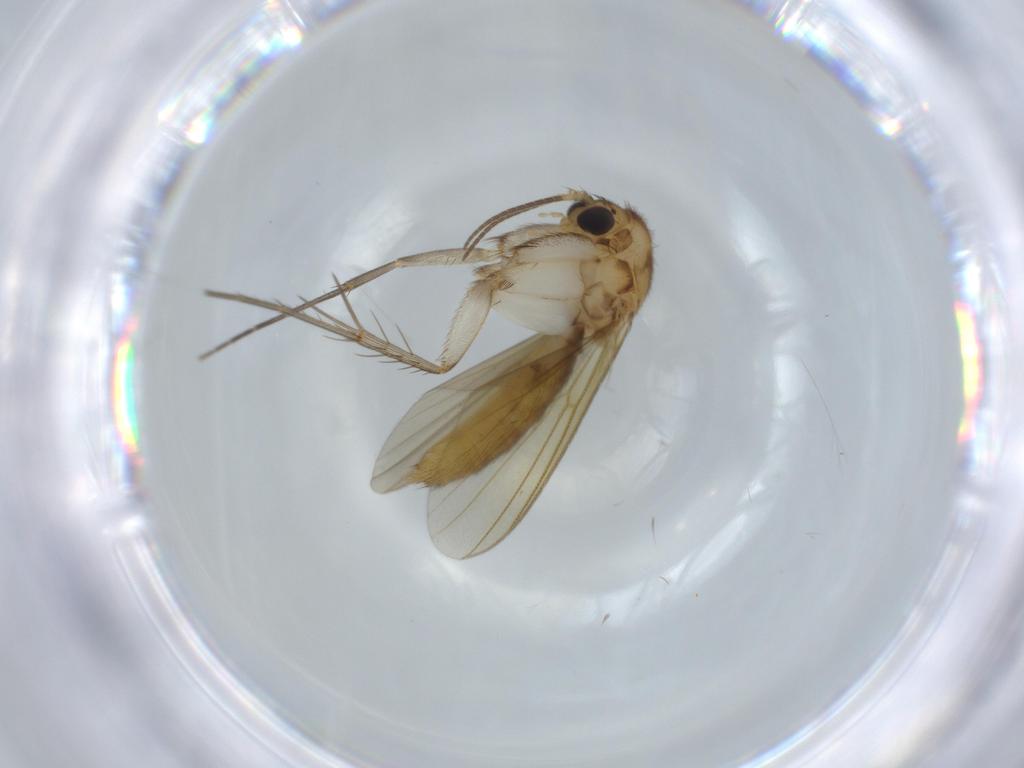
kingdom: Animalia
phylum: Arthropoda
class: Insecta
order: Diptera
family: Mycetophilidae
